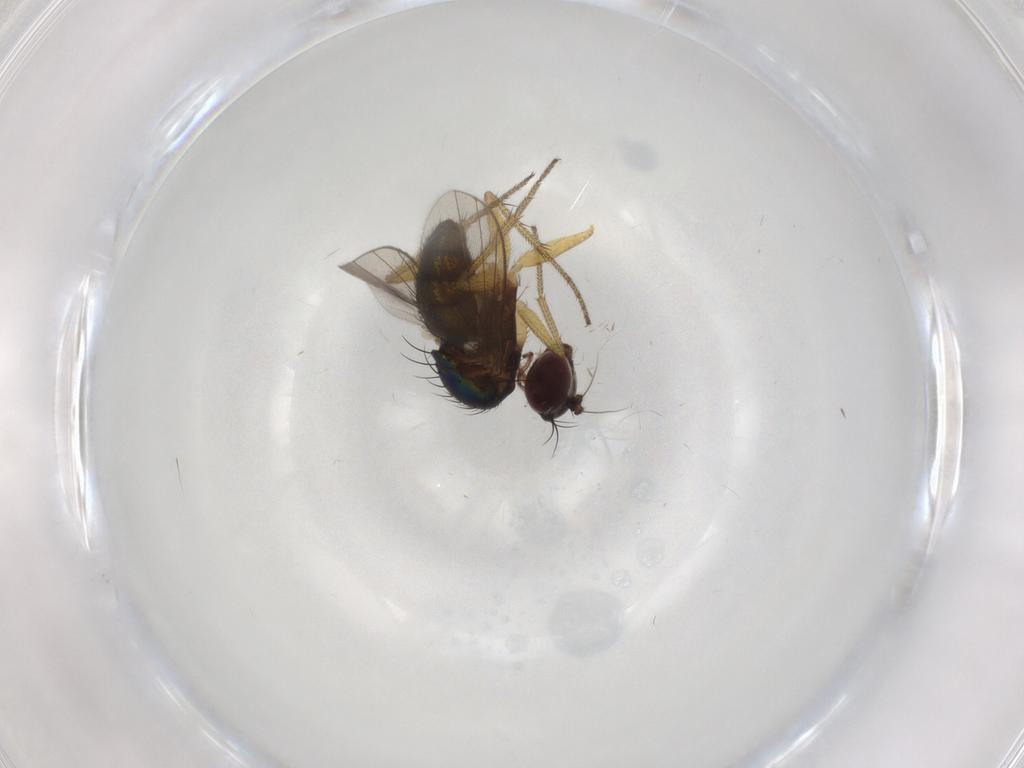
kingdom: Animalia
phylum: Arthropoda
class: Insecta
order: Diptera
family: Dolichopodidae
